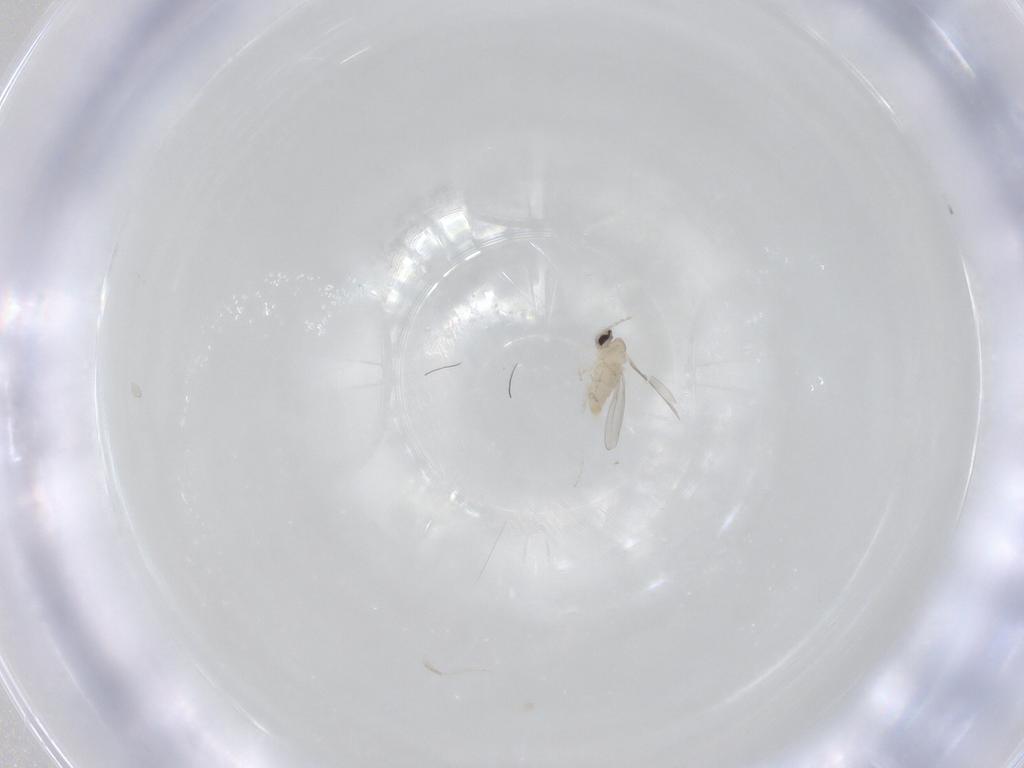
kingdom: Animalia
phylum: Arthropoda
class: Insecta
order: Diptera
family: Cecidomyiidae
